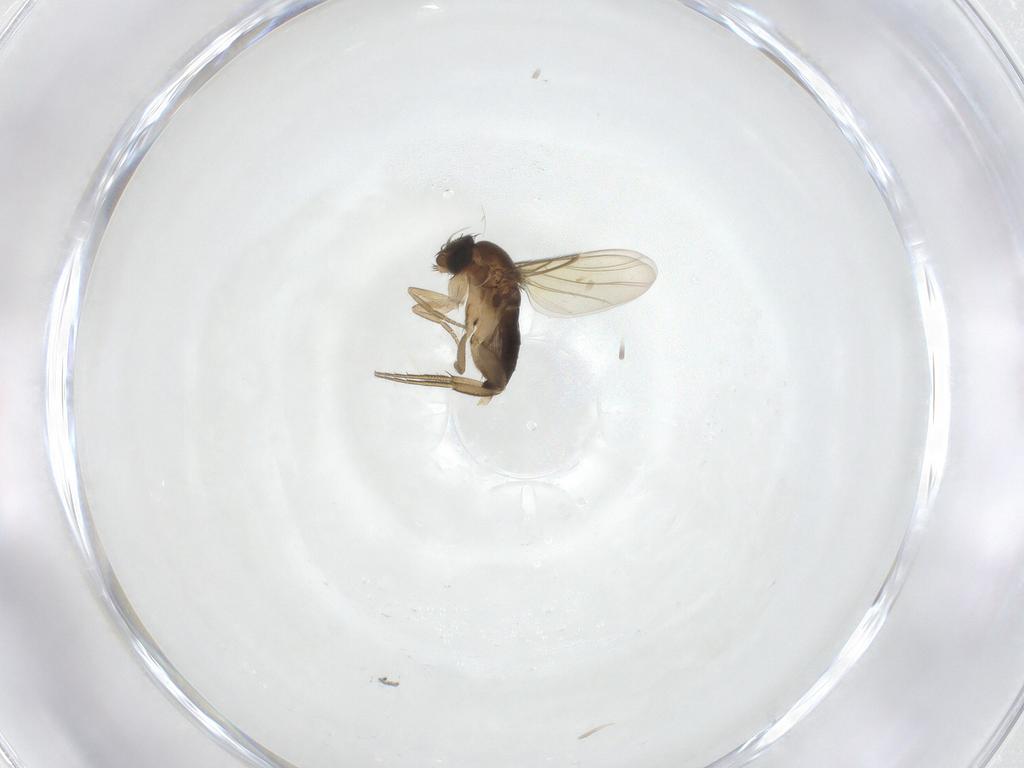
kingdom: Animalia
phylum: Arthropoda
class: Insecta
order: Diptera
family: Phoridae
